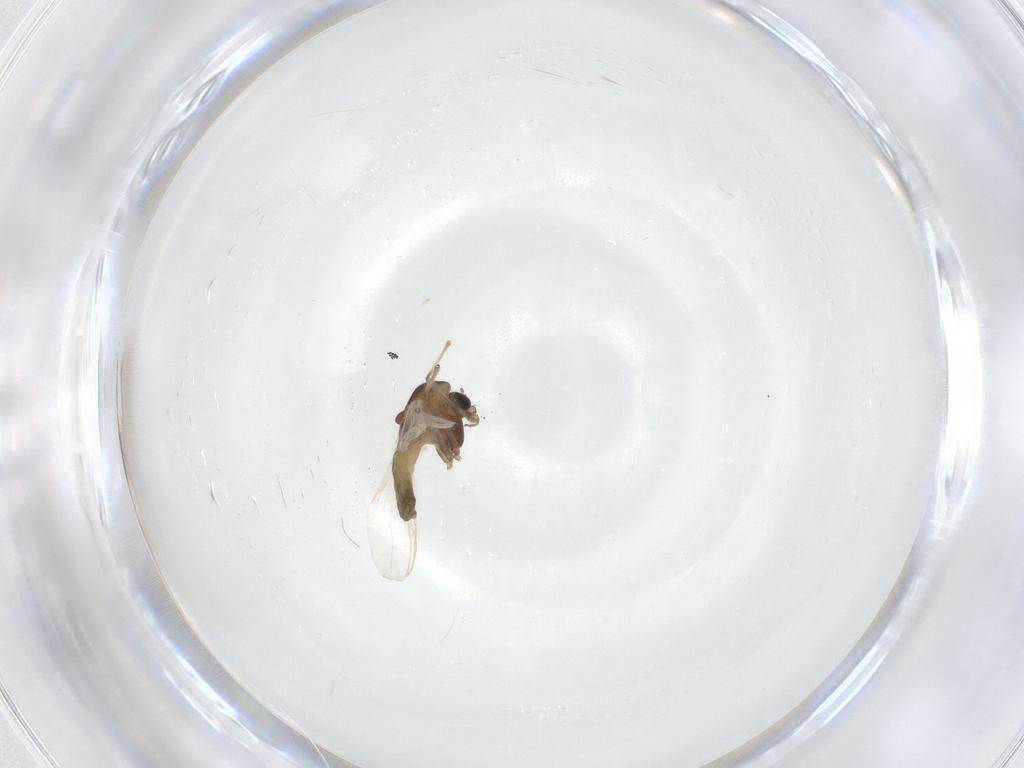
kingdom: Animalia
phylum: Arthropoda
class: Insecta
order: Diptera
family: Chironomidae
